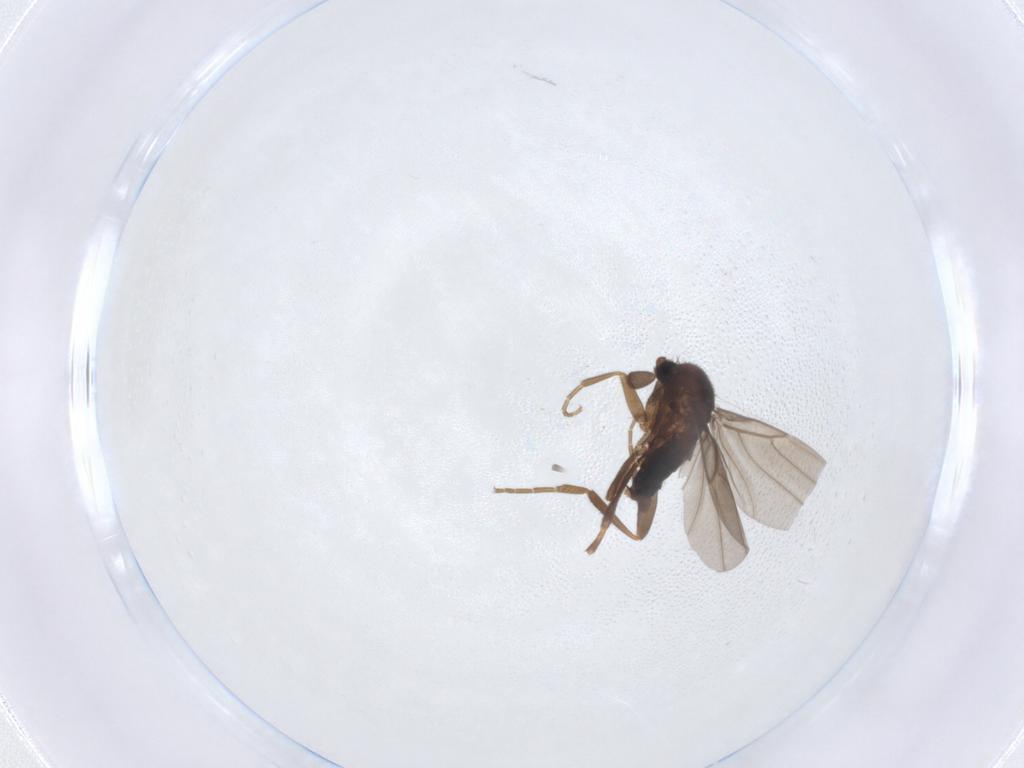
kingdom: Animalia
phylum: Arthropoda
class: Insecta
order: Diptera
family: Phoridae
